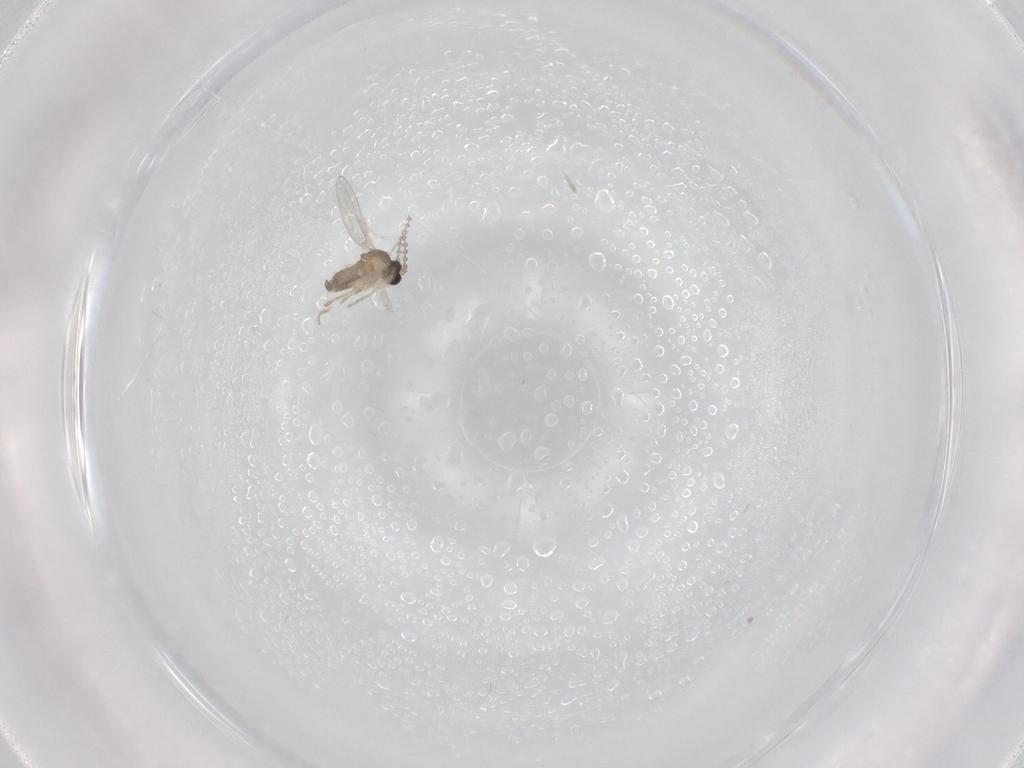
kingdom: Animalia
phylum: Arthropoda
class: Insecta
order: Diptera
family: Cecidomyiidae
